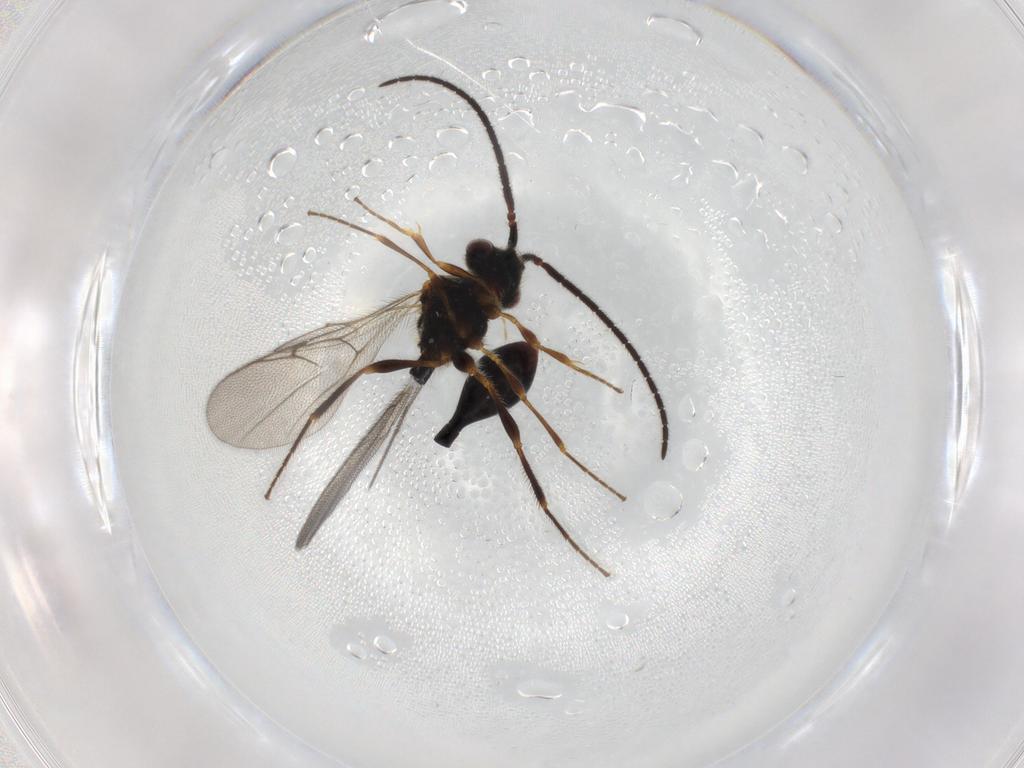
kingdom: Animalia
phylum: Arthropoda
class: Insecta
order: Hymenoptera
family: Diapriidae
